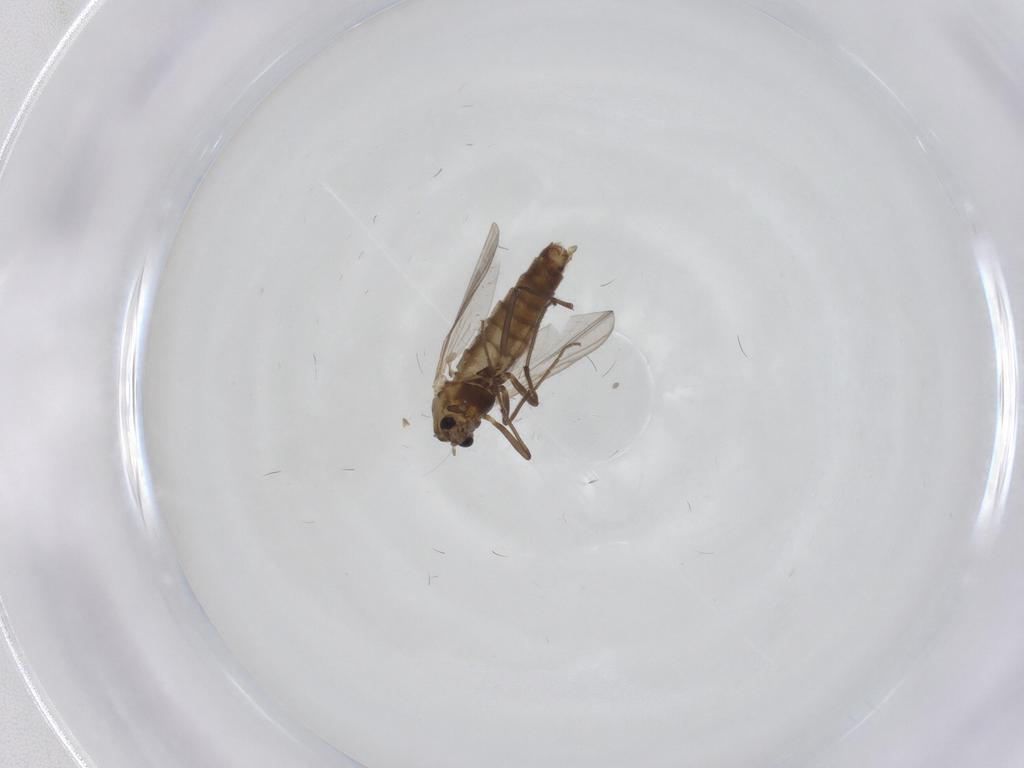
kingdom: Animalia
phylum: Arthropoda
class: Insecta
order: Diptera
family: Chironomidae
